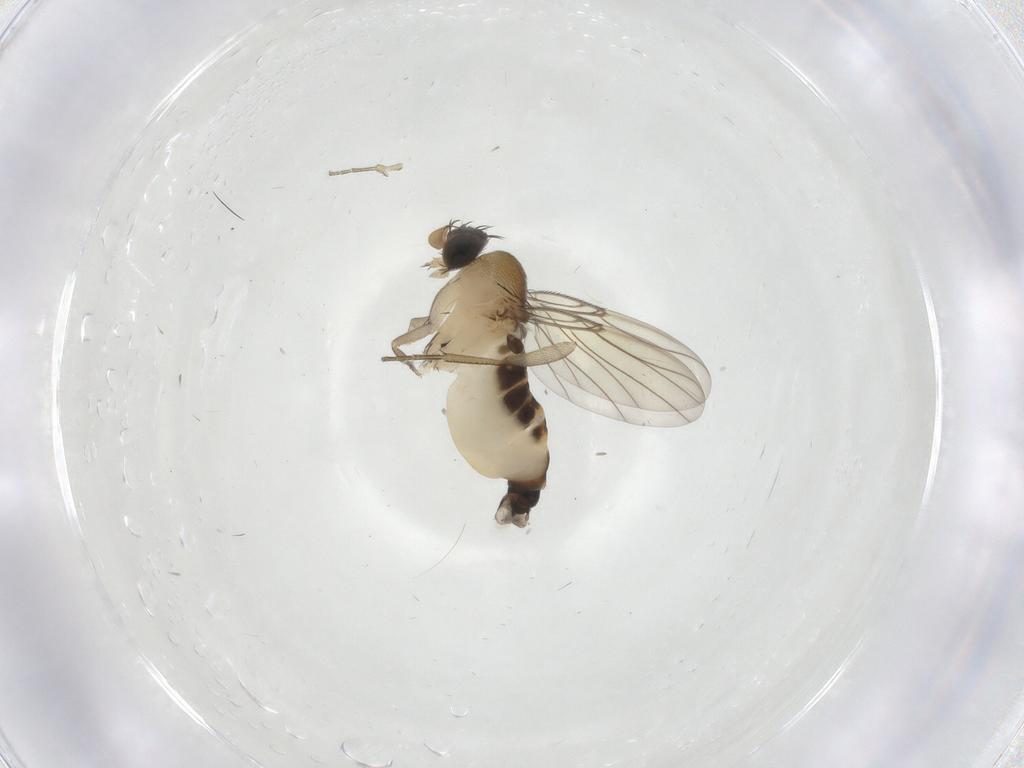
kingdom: Animalia
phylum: Arthropoda
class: Insecta
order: Diptera
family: Phoridae
